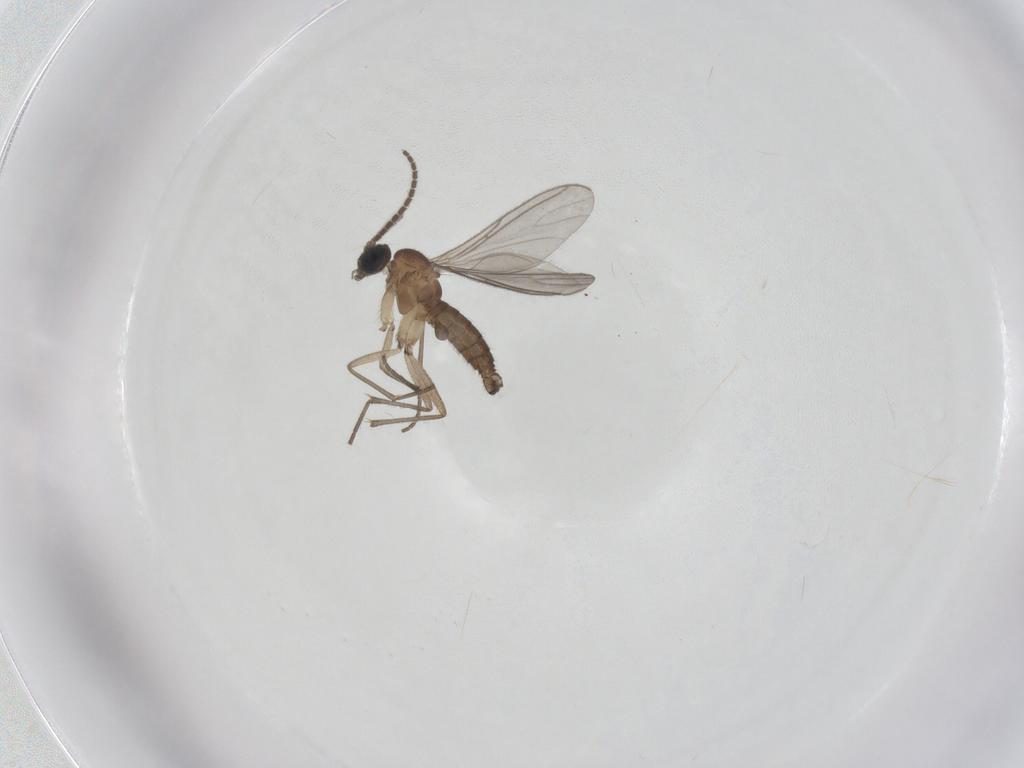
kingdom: Animalia
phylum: Arthropoda
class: Insecta
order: Diptera
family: Sciaridae
